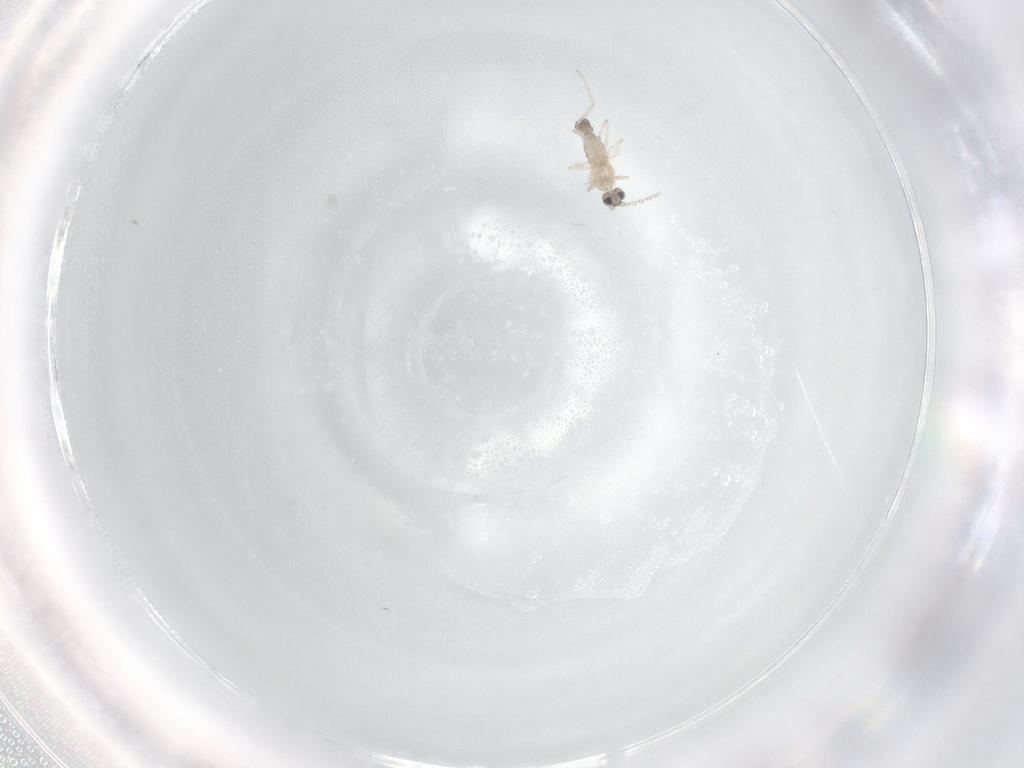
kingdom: Animalia
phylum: Arthropoda
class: Insecta
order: Diptera
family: Cecidomyiidae
